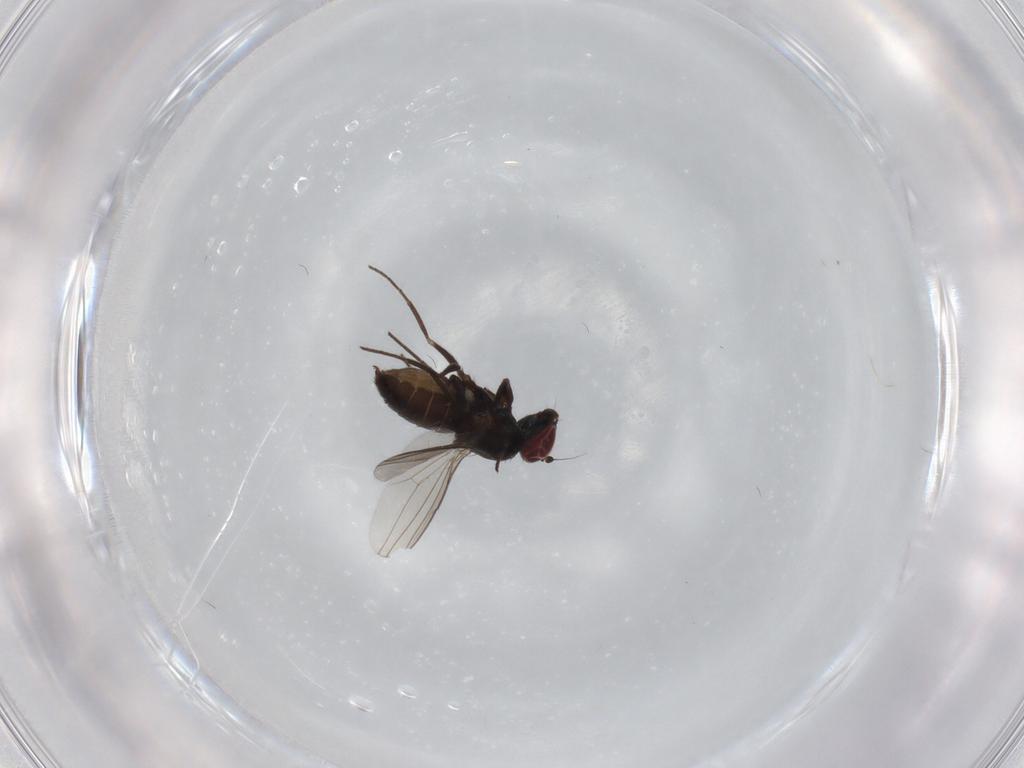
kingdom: Animalia
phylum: Arthropoda
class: Insecta
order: Diptera
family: Dolichopodidae
